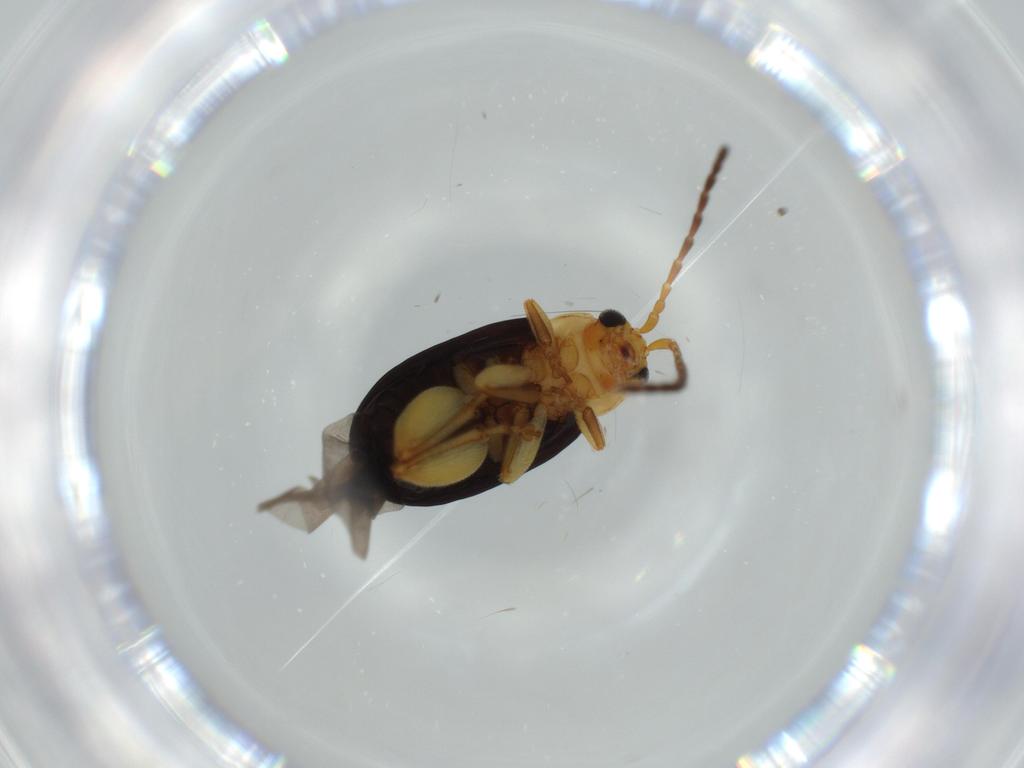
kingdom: Animalia
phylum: Arthropoda
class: Insecta
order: Coleoptera
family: Chrysomelidae
